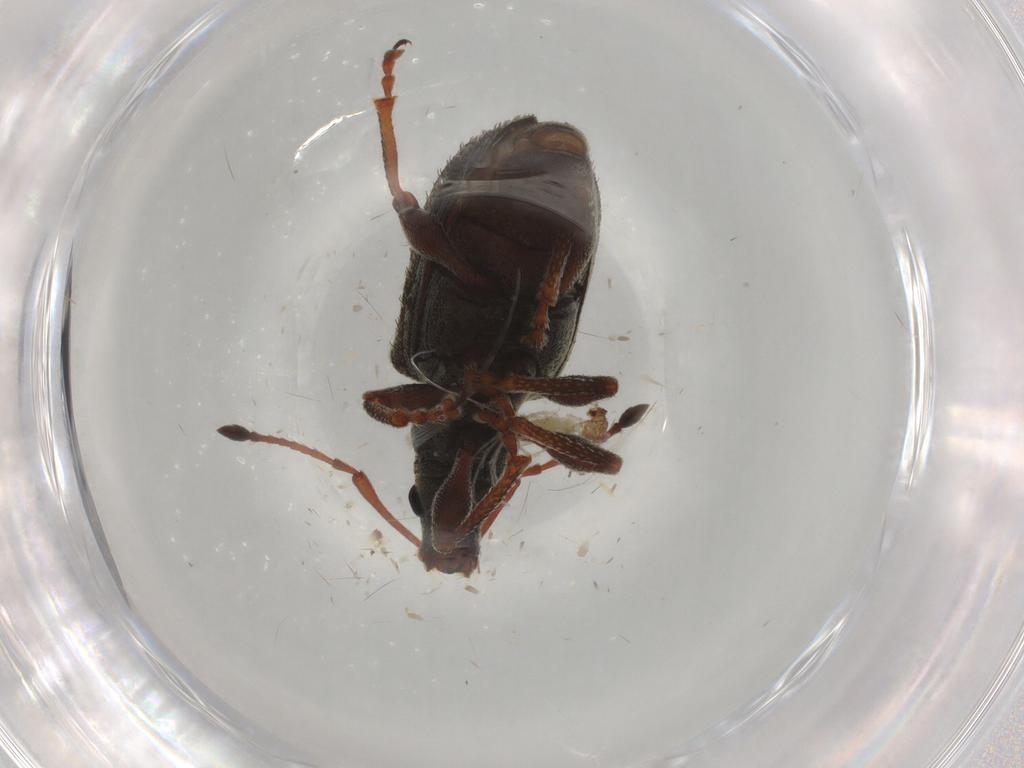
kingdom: Animalia
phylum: Arthropoda
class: Insecta
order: Coleoptera
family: Curculionidae
